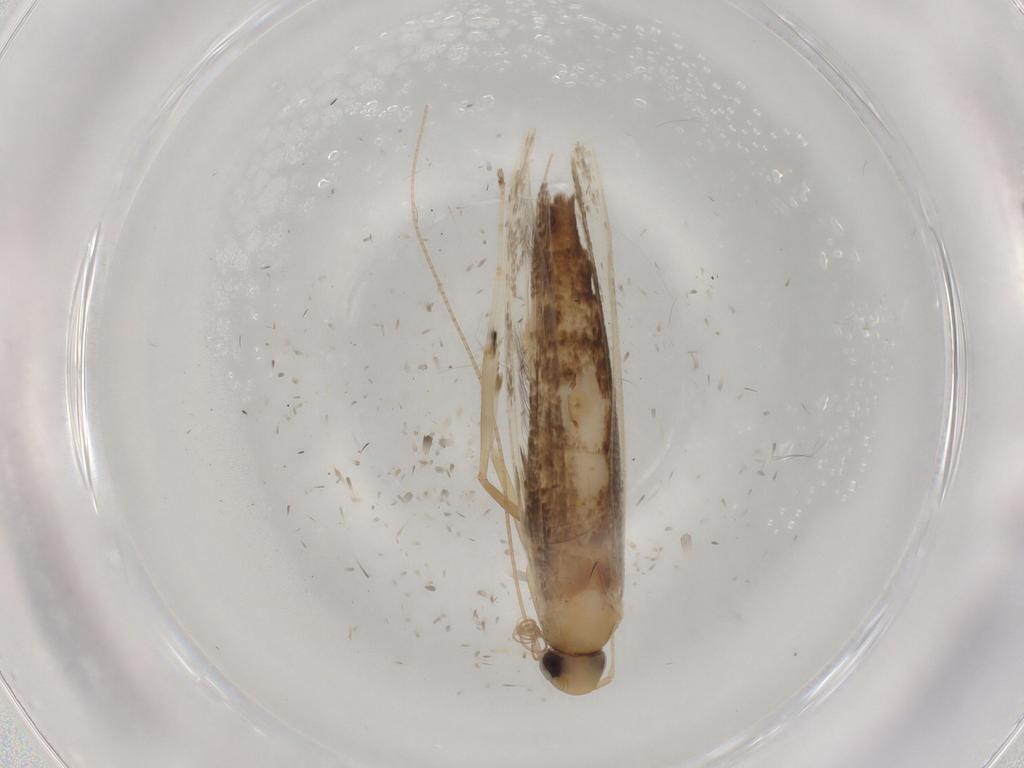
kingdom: Animalia
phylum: Arthropoda
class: Insecta
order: Lepidoptera
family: Gracillariidae
